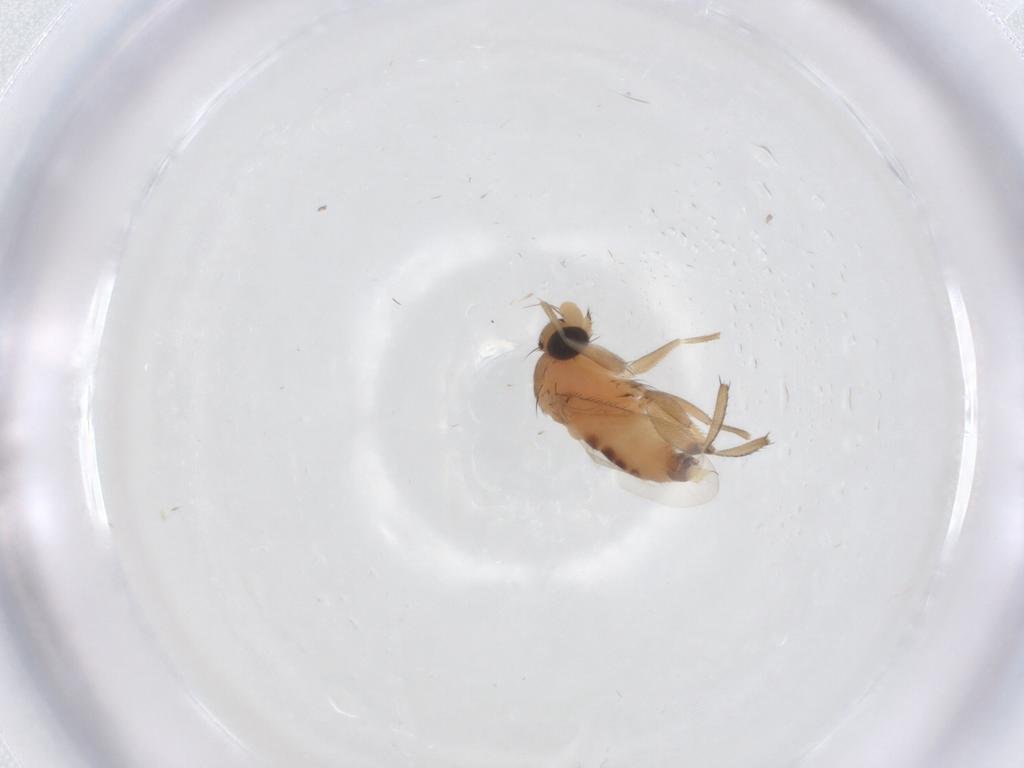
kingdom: Animalia
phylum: Arthropoda
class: Insecta
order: Diptera
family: Phoridae
